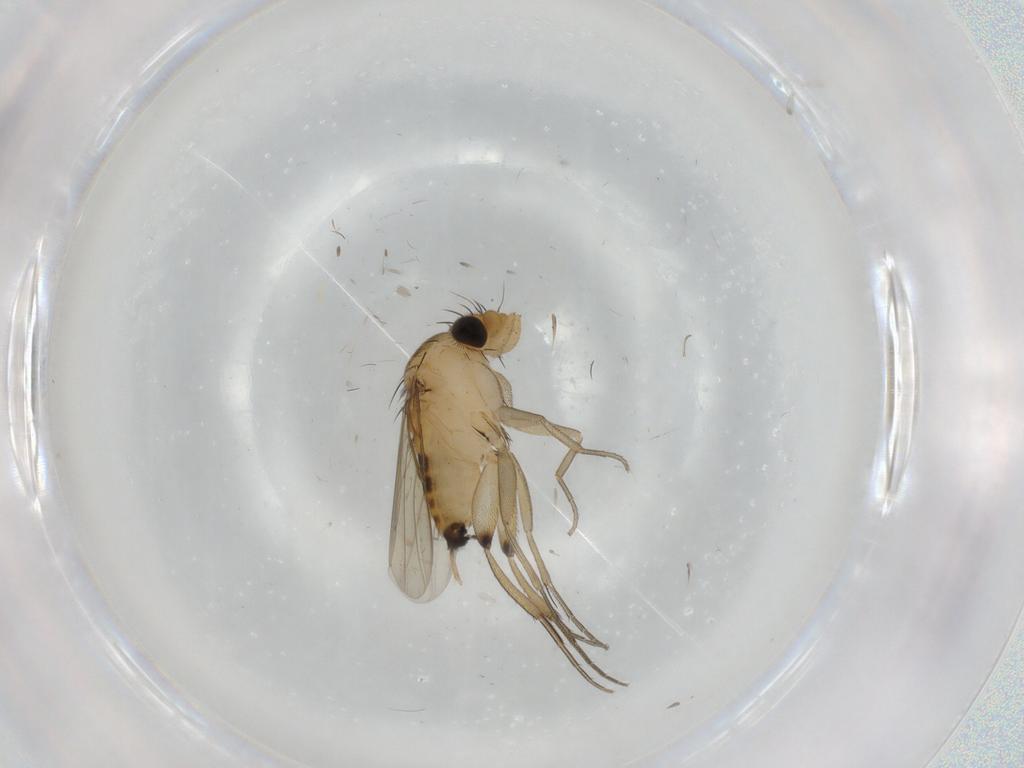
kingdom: Animalia
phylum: Arthropoda
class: Insecta
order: Diptera
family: Phoridae
